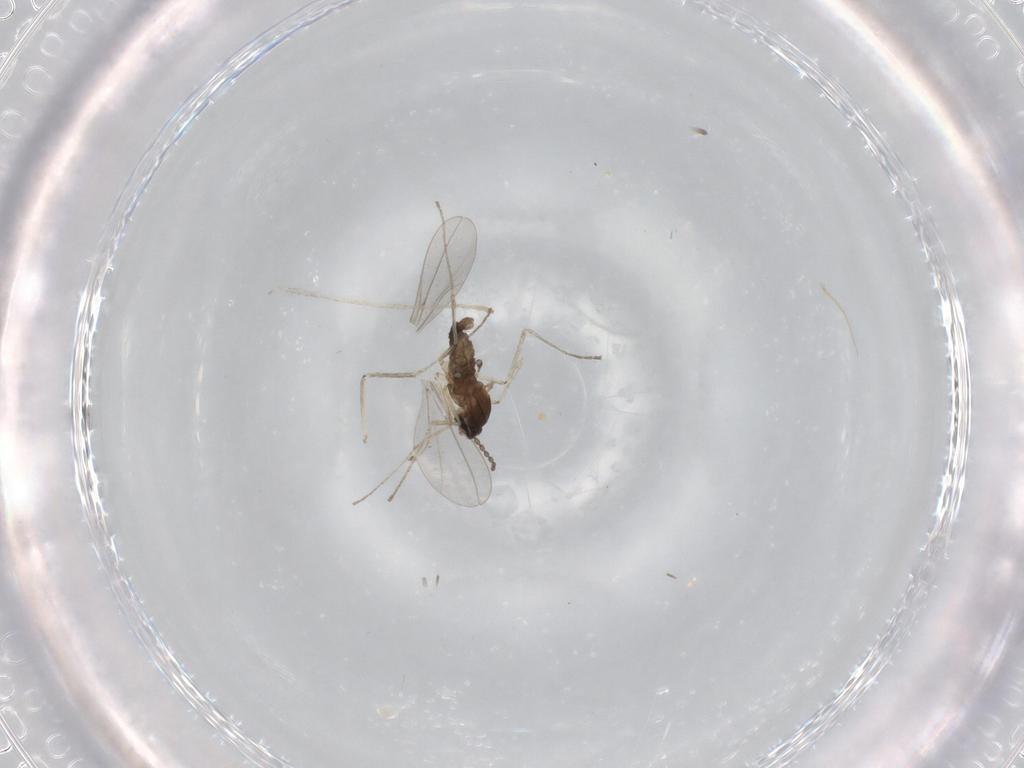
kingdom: Animalia
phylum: Arthropoda
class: Insecta
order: Diptera
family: Cecidomyiidae
